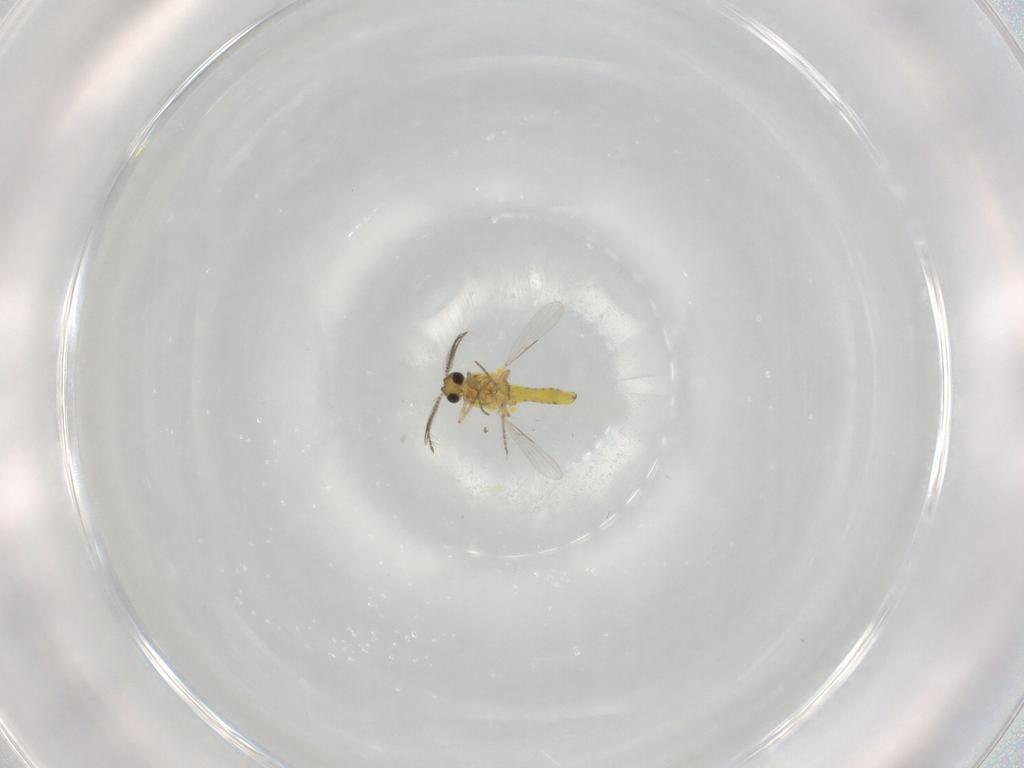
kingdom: Animalia
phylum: Arthropoda
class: Insecta
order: Diptera
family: Ceratopogonidae
